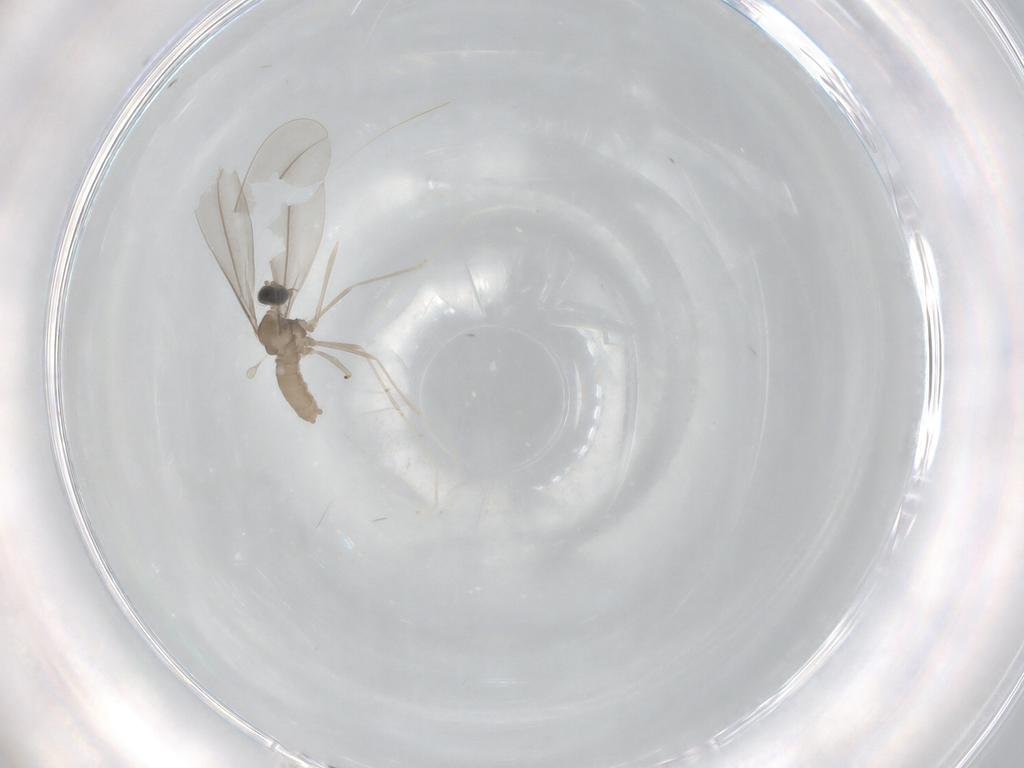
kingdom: Animalia
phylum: Arthropoda
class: Insecta
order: Diptera
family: Cecidomyiidae
